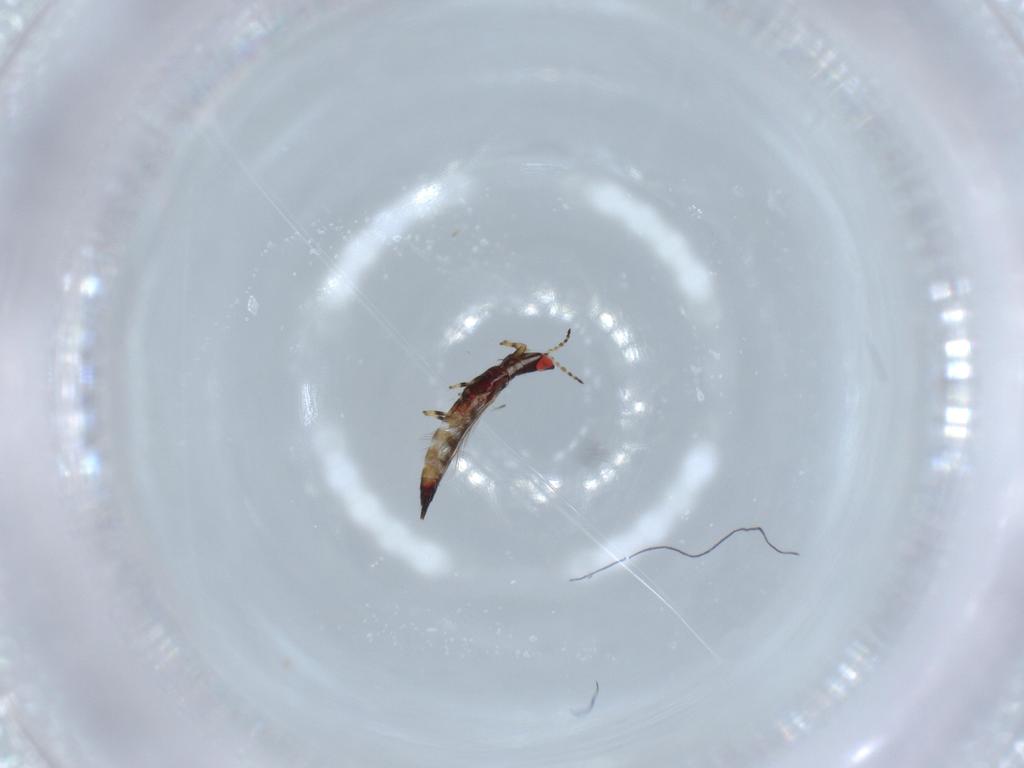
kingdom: Animalia
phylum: Arthropoda
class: Insecta
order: Thysanoptera
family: Phlaeothripidae
